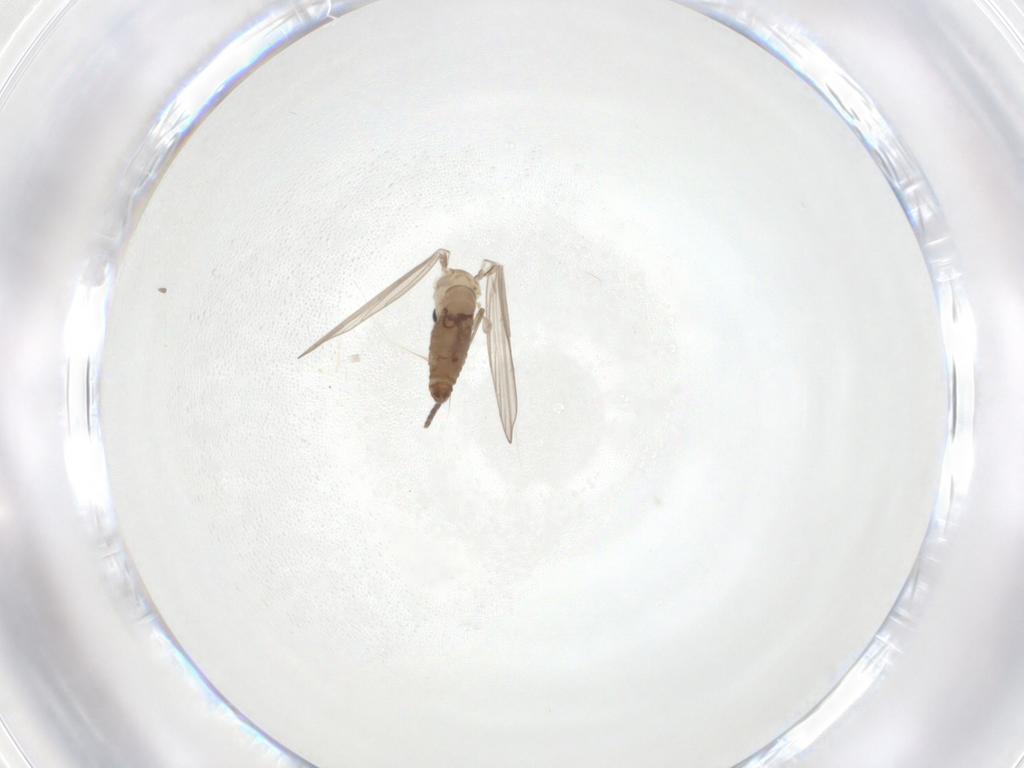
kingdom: Animalia
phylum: Arthropoda
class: Insecta
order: Diptera
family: Psychodidae
